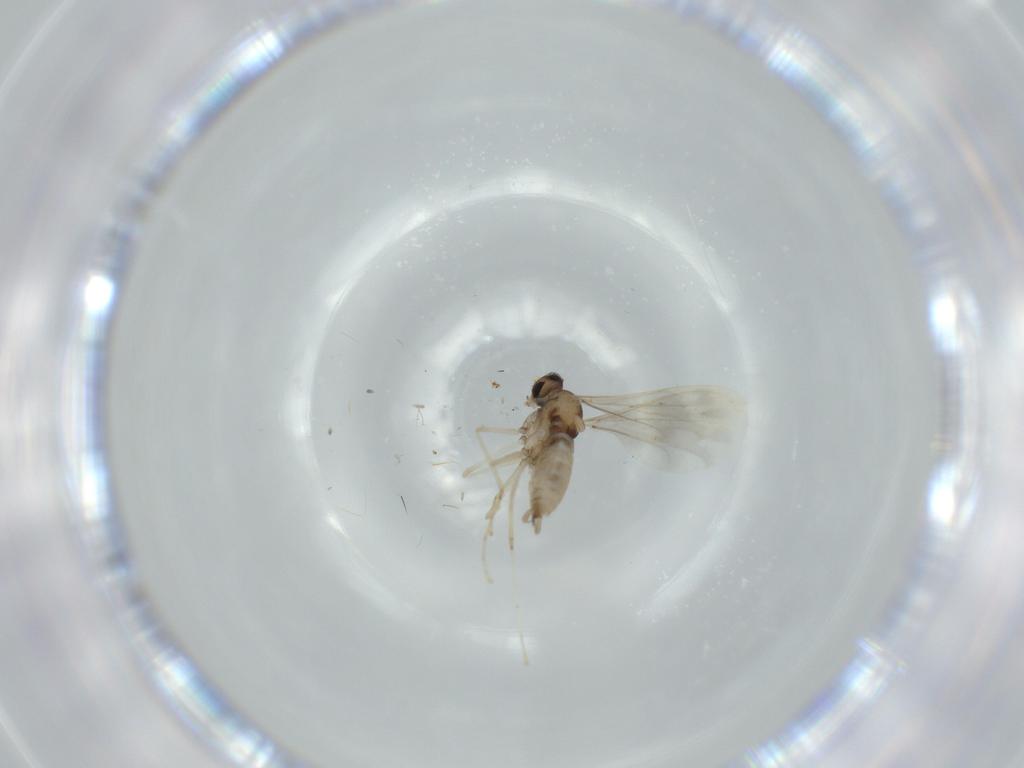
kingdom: Animalia
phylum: Arthropoda
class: Insecta
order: Diptera
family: Cecidomyiidae
